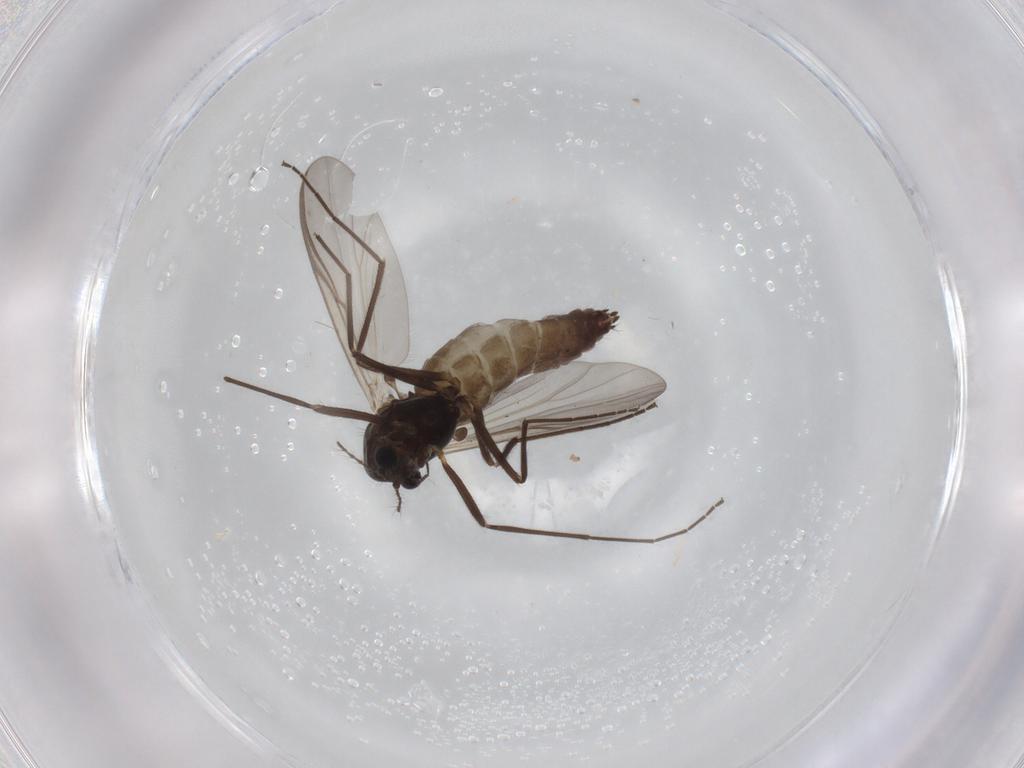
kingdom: Animalia
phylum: Arthropoda
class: Insecta
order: Diptera
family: Chironomidae
